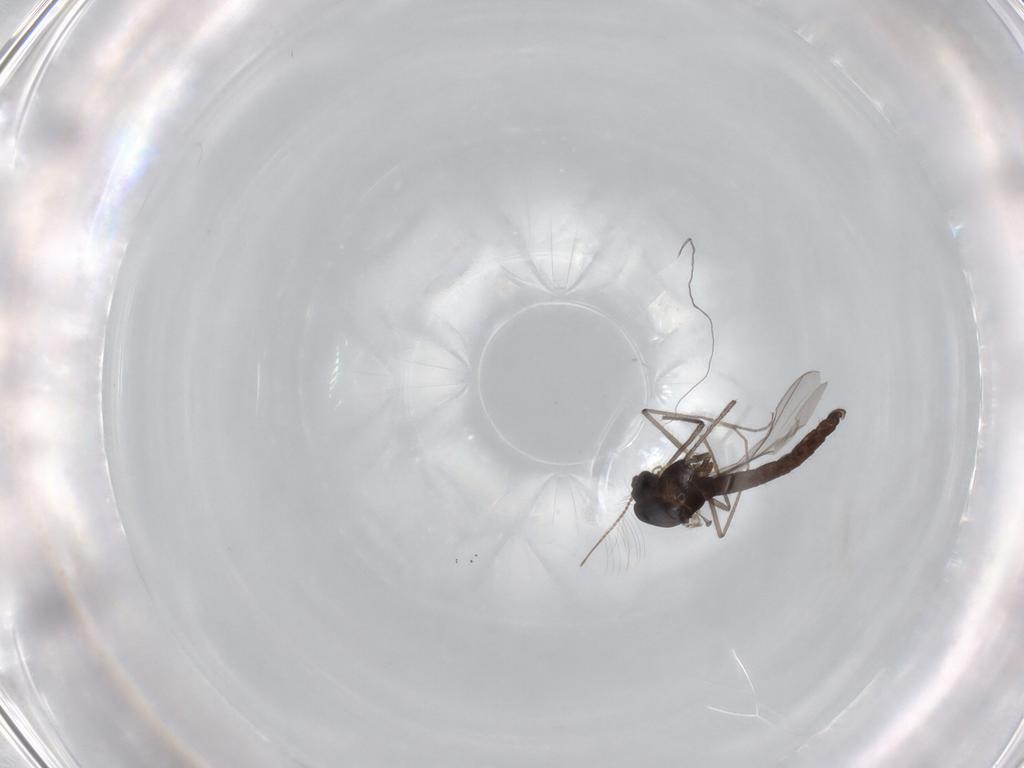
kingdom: Animalia
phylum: Arthropoda
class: Insecta
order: Diptera
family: Chironomidae
